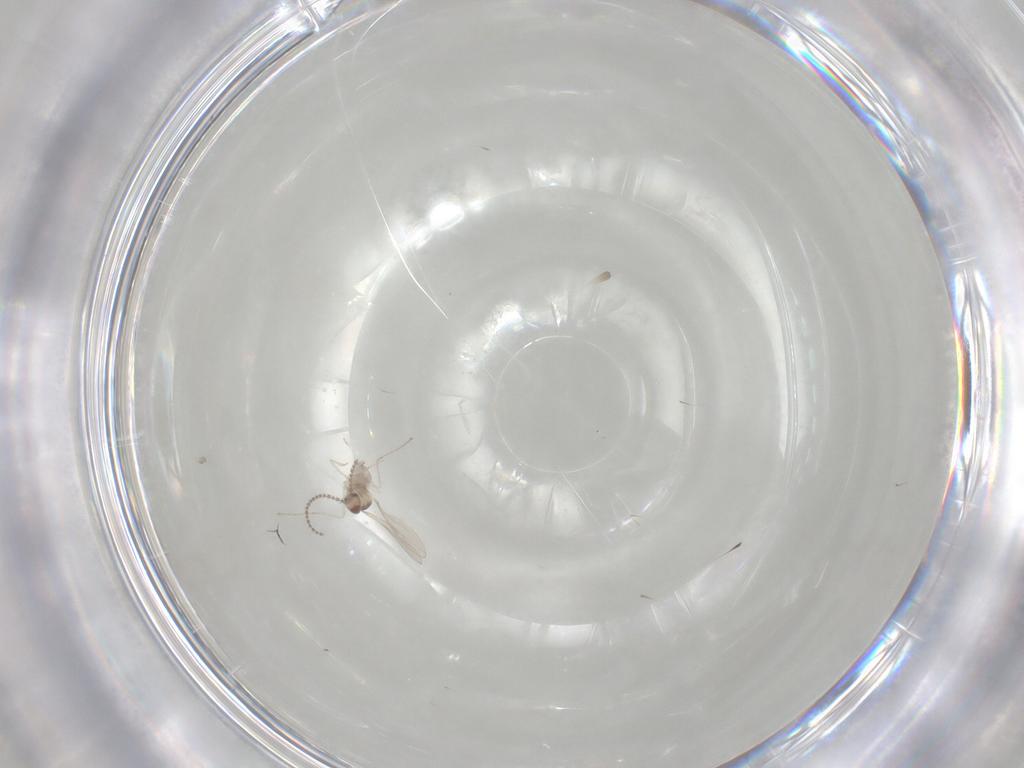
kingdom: Animalia
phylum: Arthropoda
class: Insecta
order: Diptera
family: Cecidomyiidae
